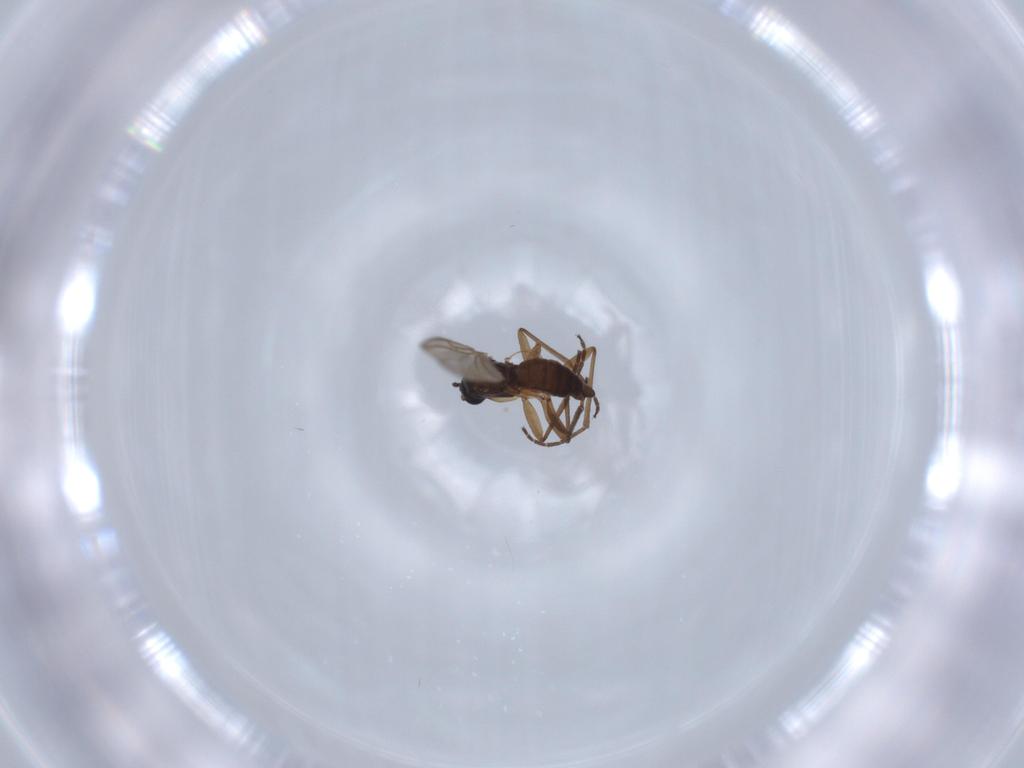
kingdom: Animalia
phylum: Arthropoda
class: Insecta
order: Diptera
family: Sciaridae
